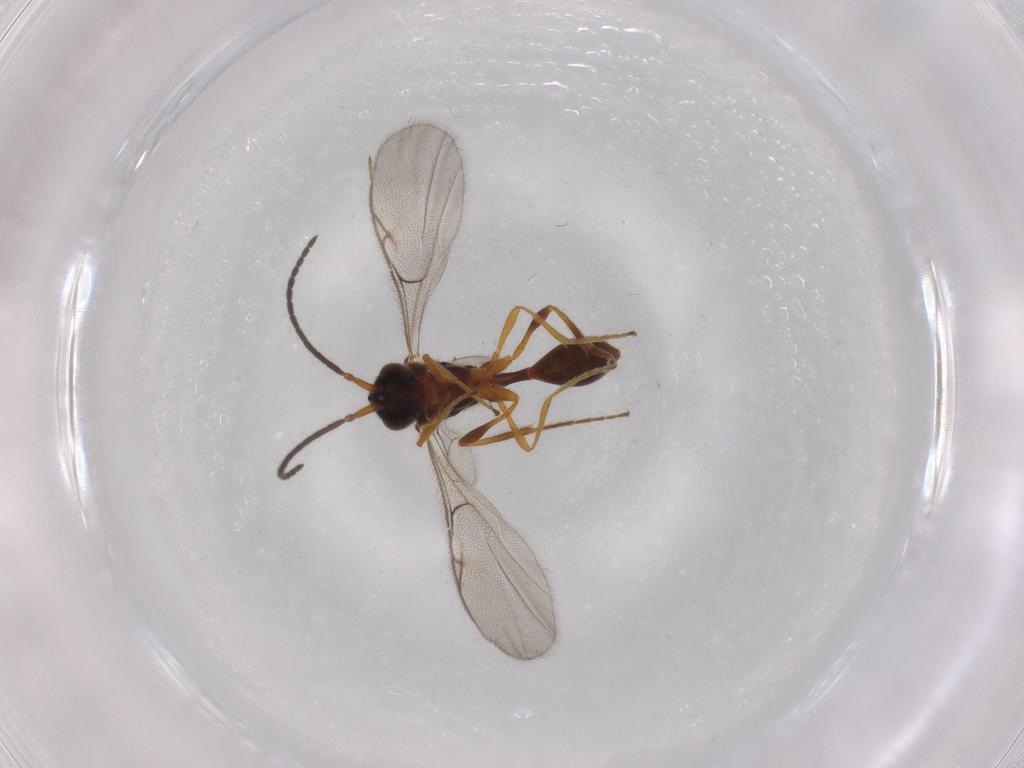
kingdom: Animalia
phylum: Arthropoda
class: Insecta
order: Hymenoptera
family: Diapriidae
